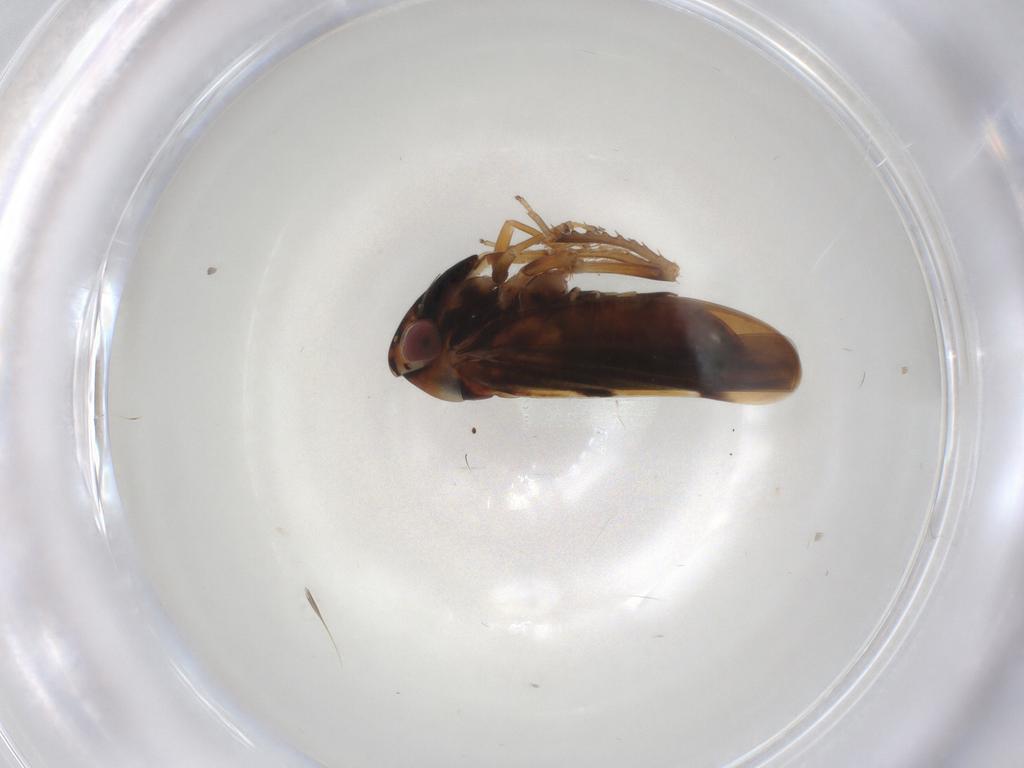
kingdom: Animalia
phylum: Arthropoda
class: Insecta
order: Hemiptera
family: Cicadellidae
